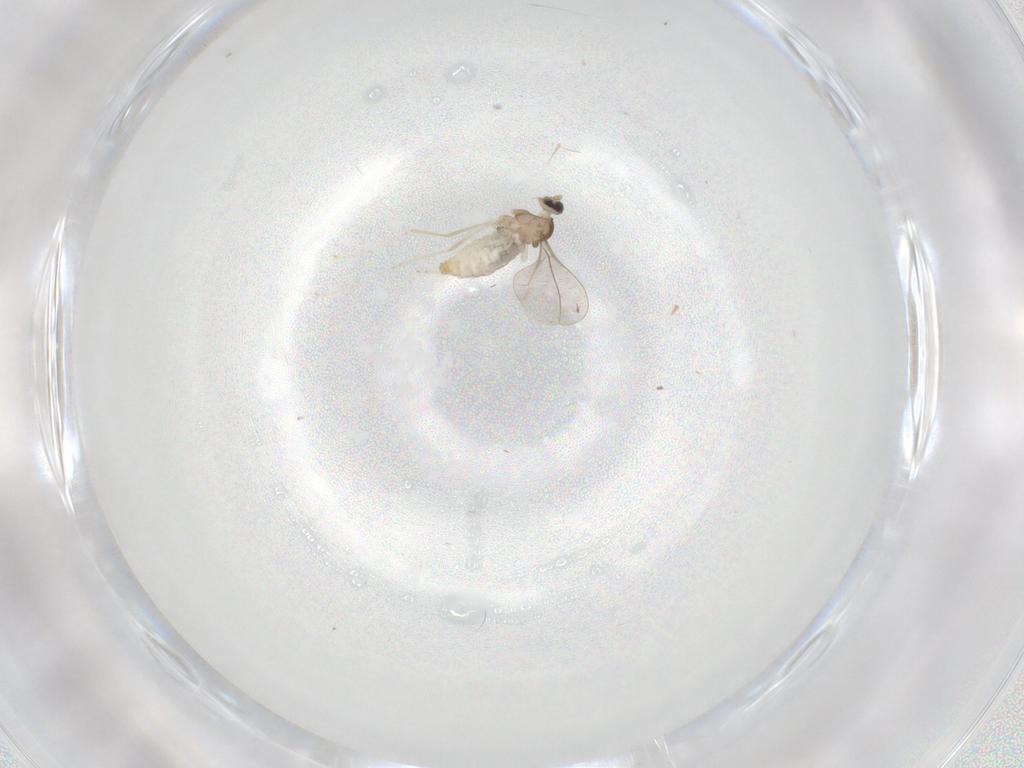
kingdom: Animalia
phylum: Arthropoda
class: Insecta
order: Diptera
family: Cecidomyiidae
